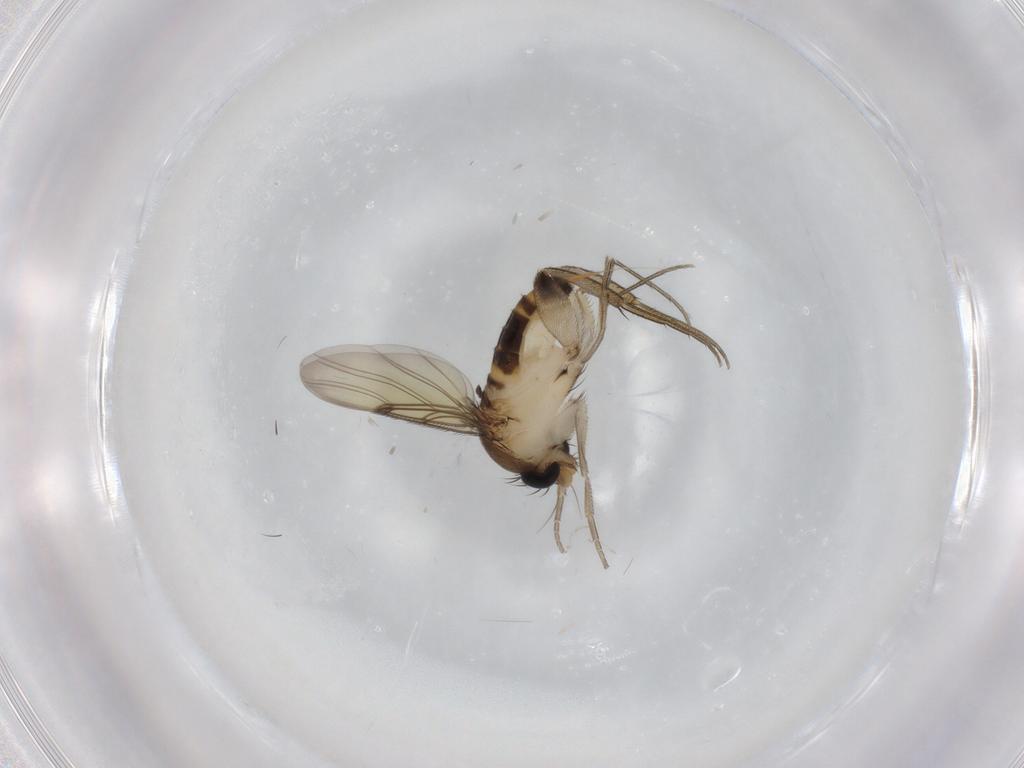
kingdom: Animalia
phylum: Arthropoda
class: Insecta
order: Diptera
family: Phoridae
